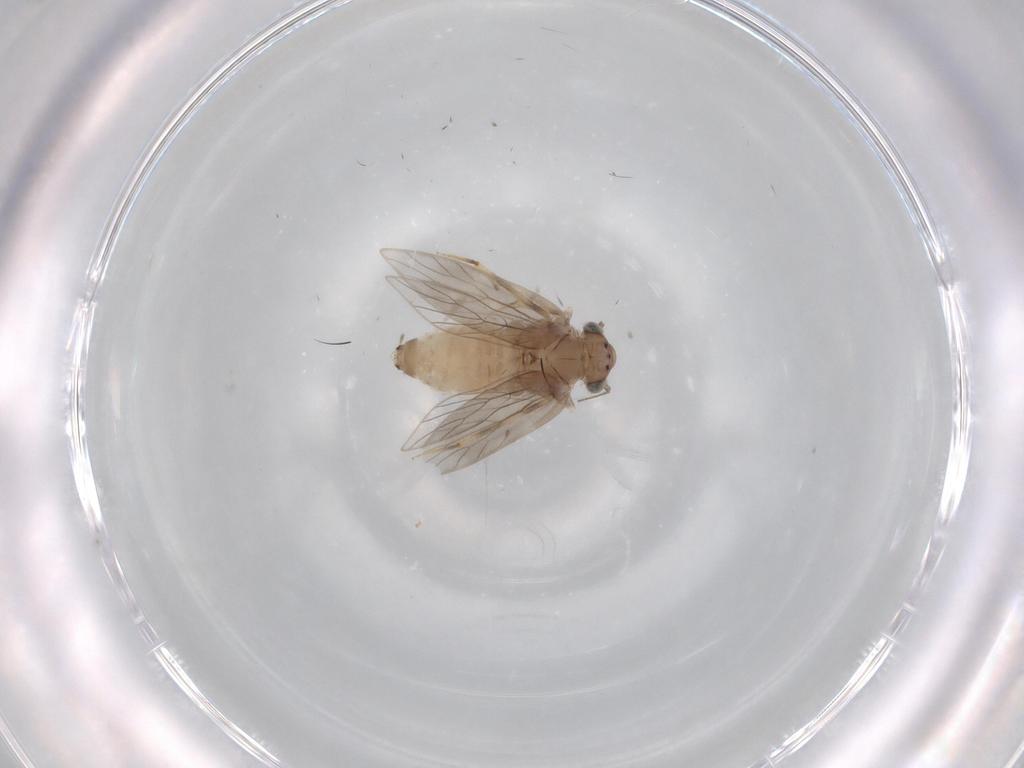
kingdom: Animalia
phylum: Arthropoda
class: Insecta
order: Psocodea
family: Lepidopsocidae
